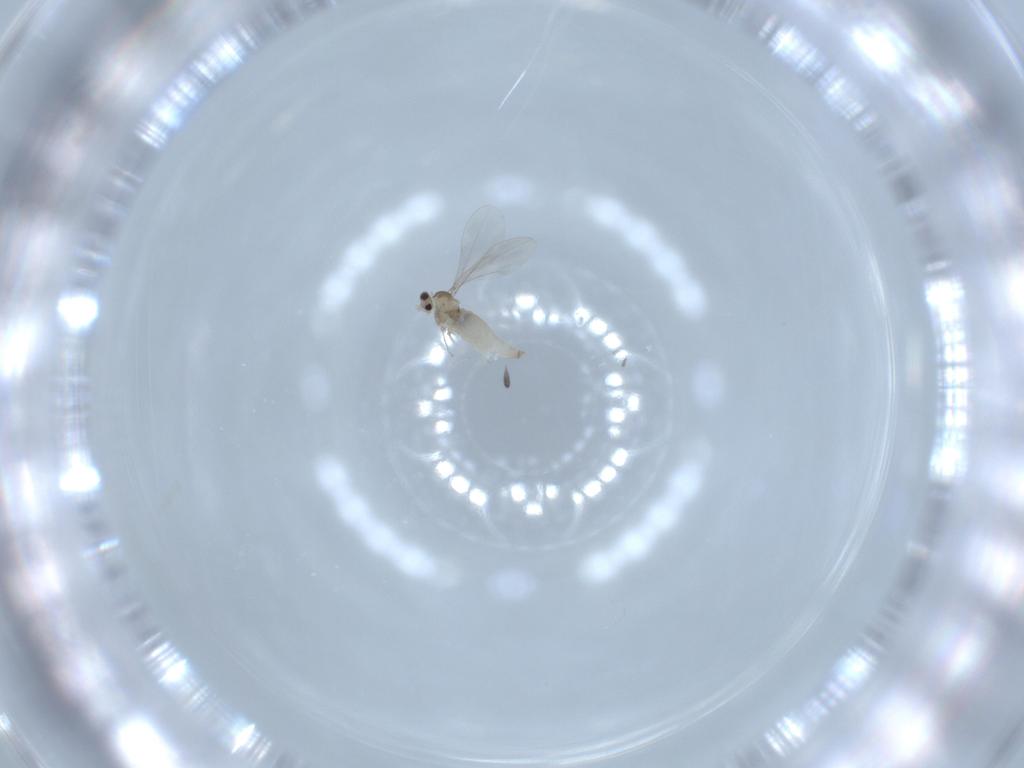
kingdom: Animalia
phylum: Arthropoda
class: Insecta
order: Diptera
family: Cecidomyiidae
